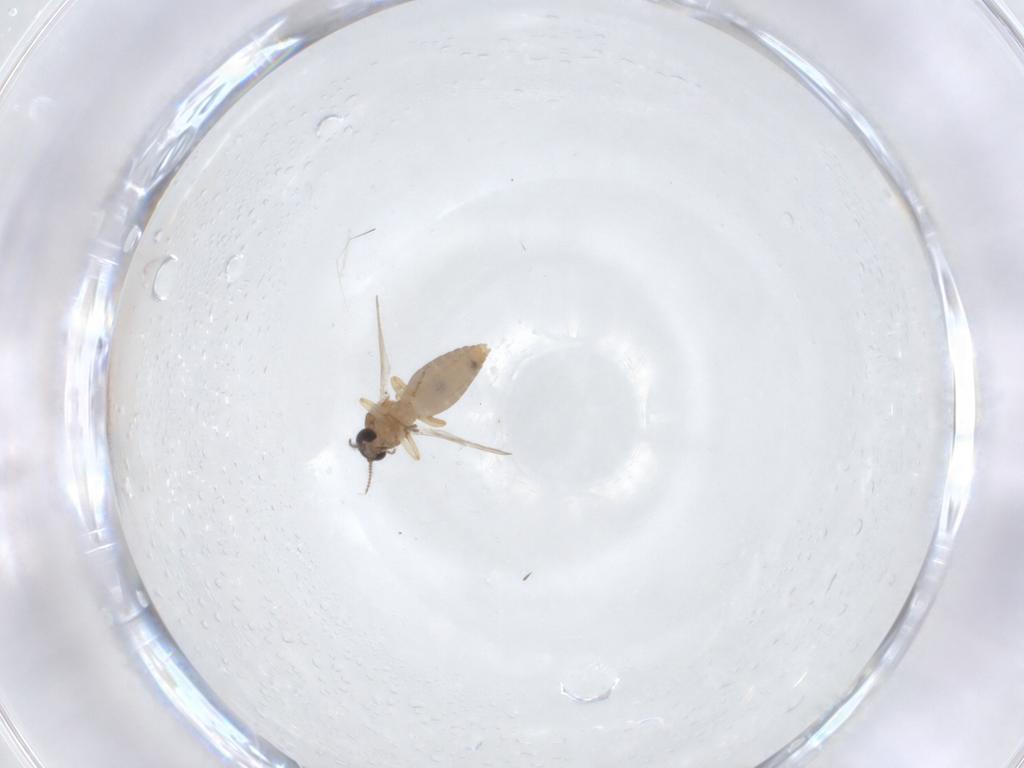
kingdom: Animalia
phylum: Arthropoda
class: Insecta
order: Diptera
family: Ceratopogonidae
